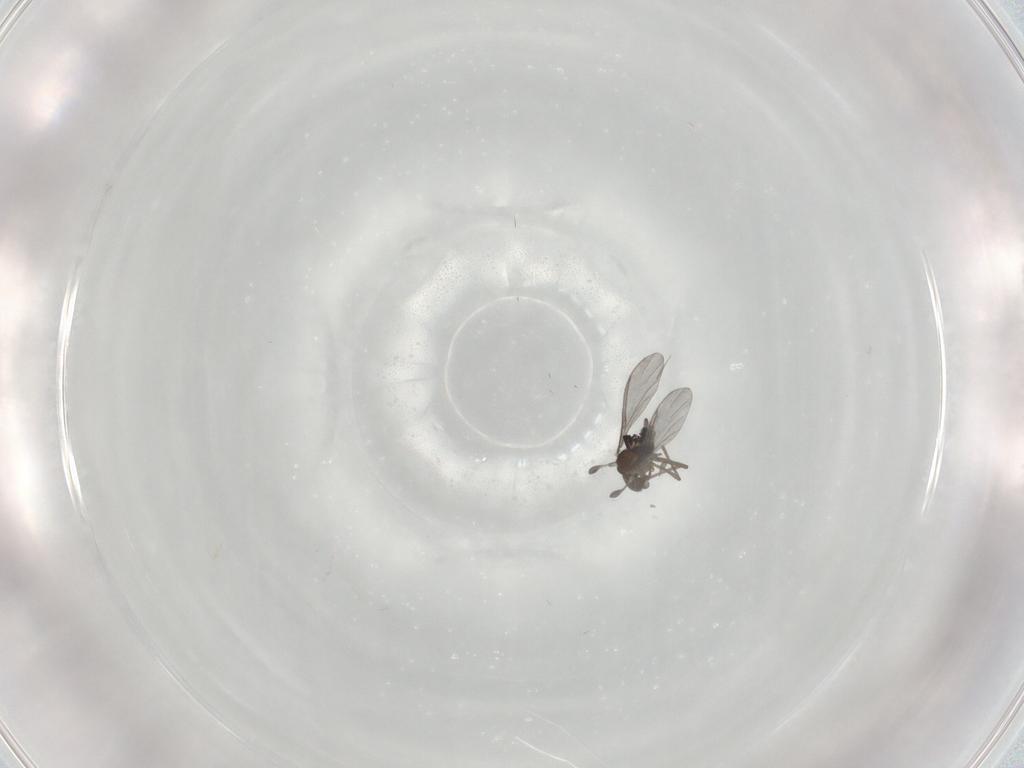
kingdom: Animalia
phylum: Arthropoda
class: Insecta
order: Diptera
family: Sciaridae
